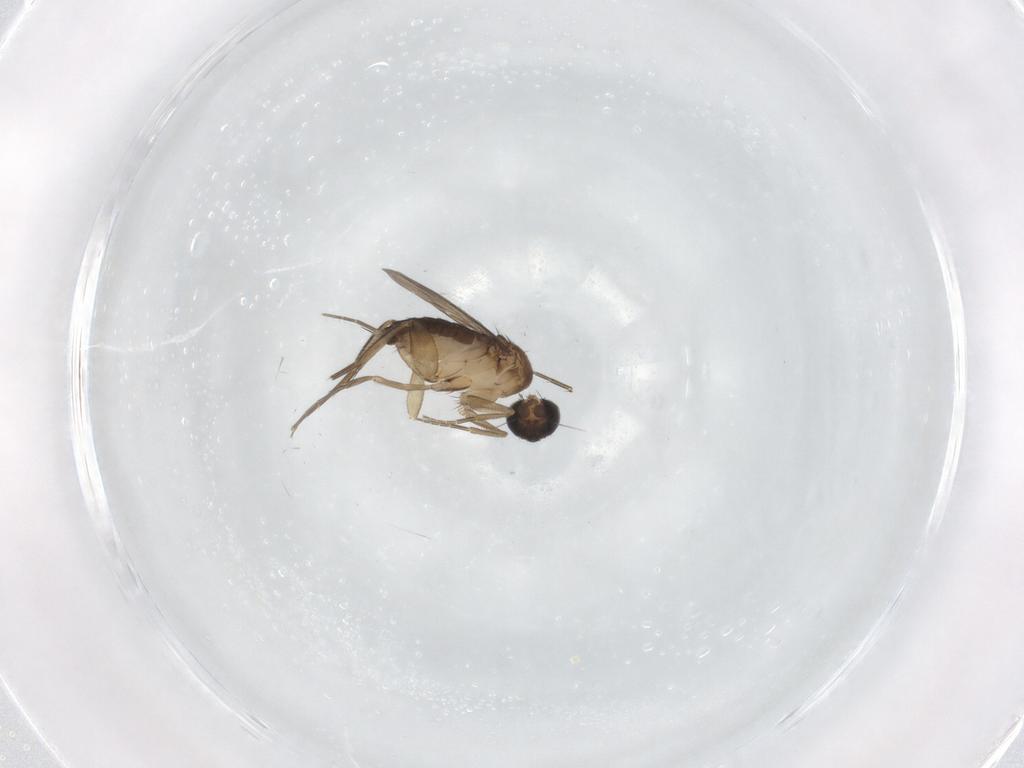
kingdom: Animalia
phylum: Arthropoda
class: Insecta
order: Diptera
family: Phoridae
